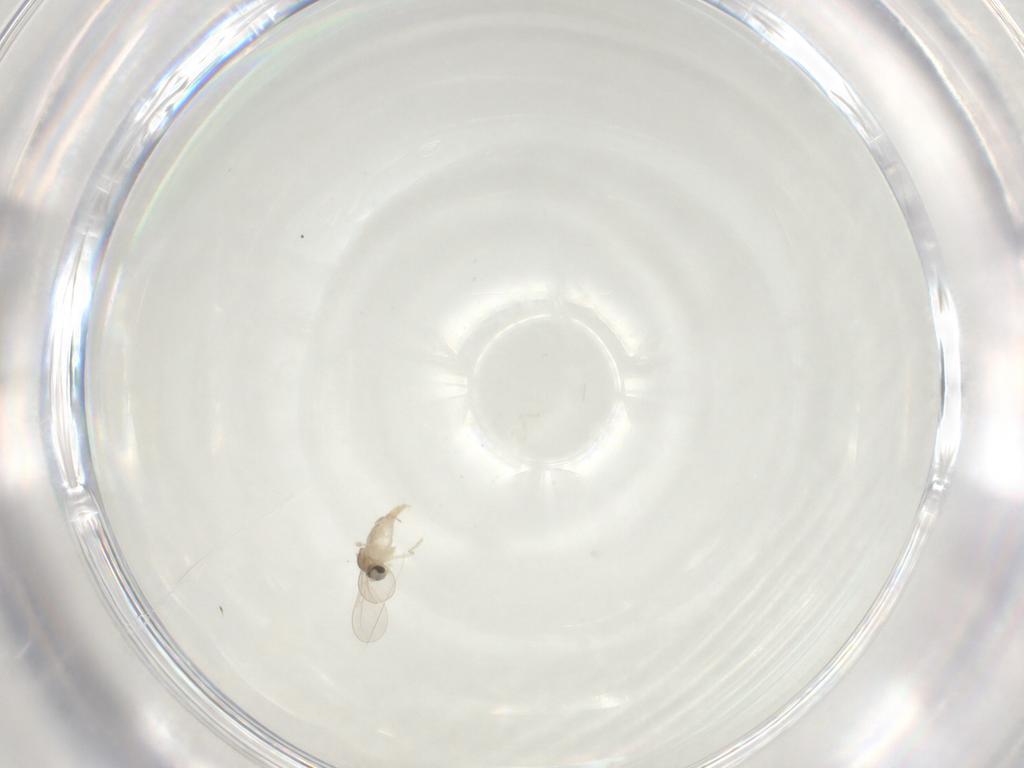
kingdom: Animalia
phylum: Arthropoda
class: Insecta
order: Diptera
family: Cecidomyiidae
